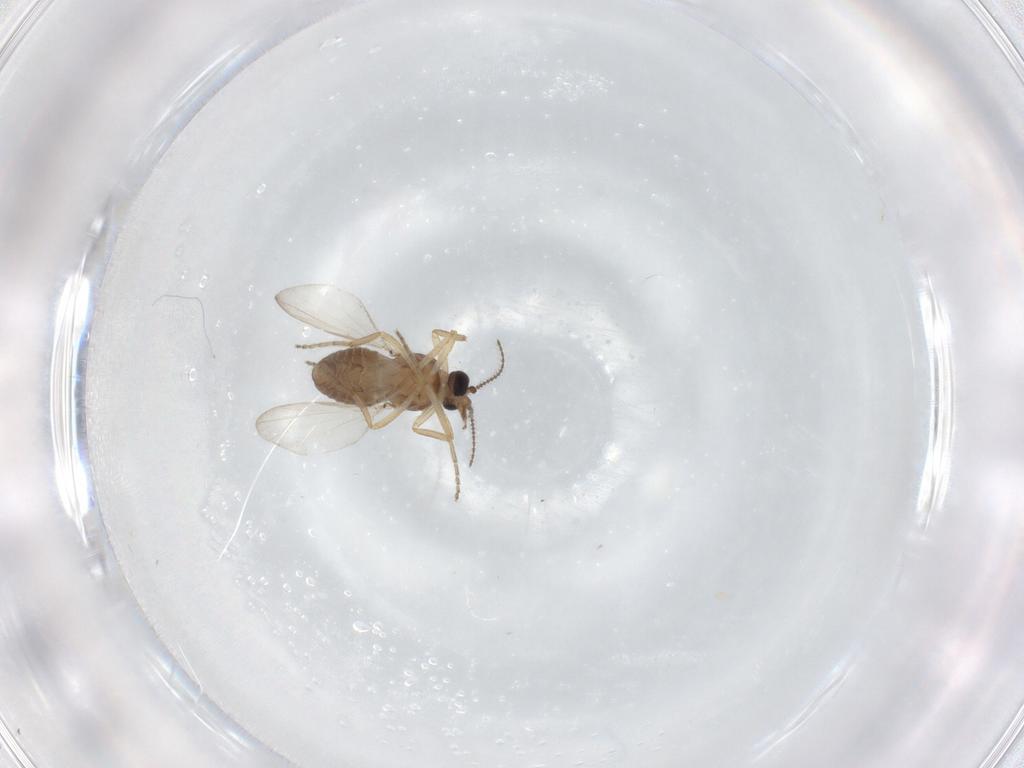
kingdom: Animalia
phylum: Arthropoda
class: Insecta
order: Diptera
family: Ceratopogonidae
